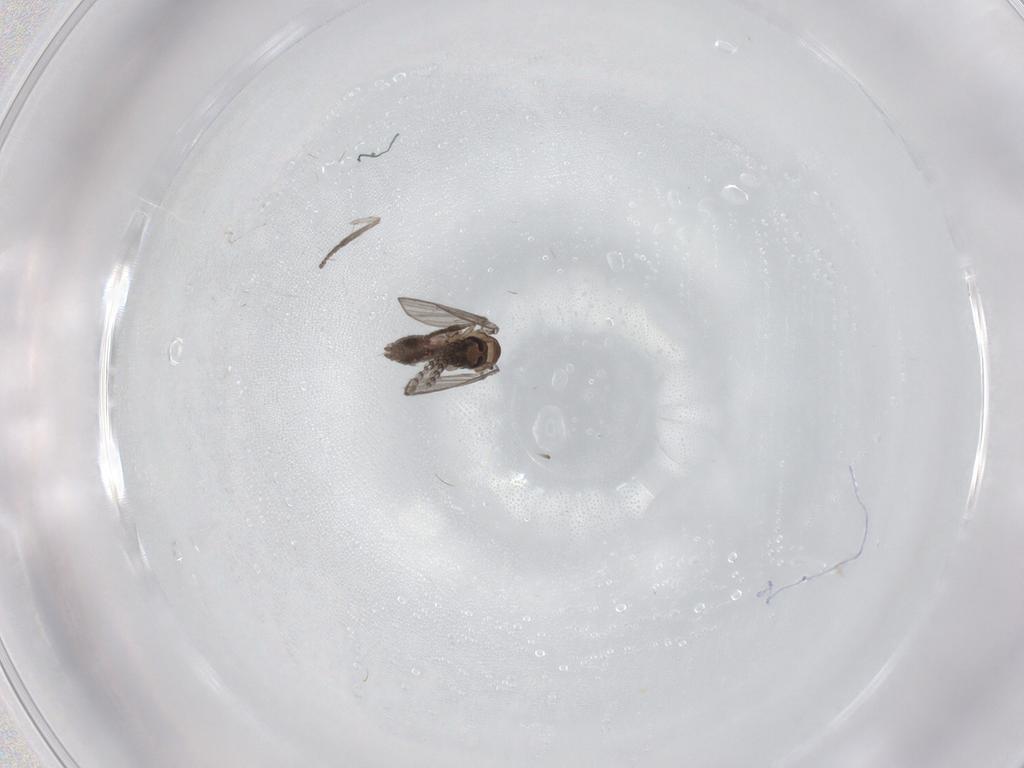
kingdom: Animalia
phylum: Arthropoda
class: Insecta
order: Diptera
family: Psychodidae
